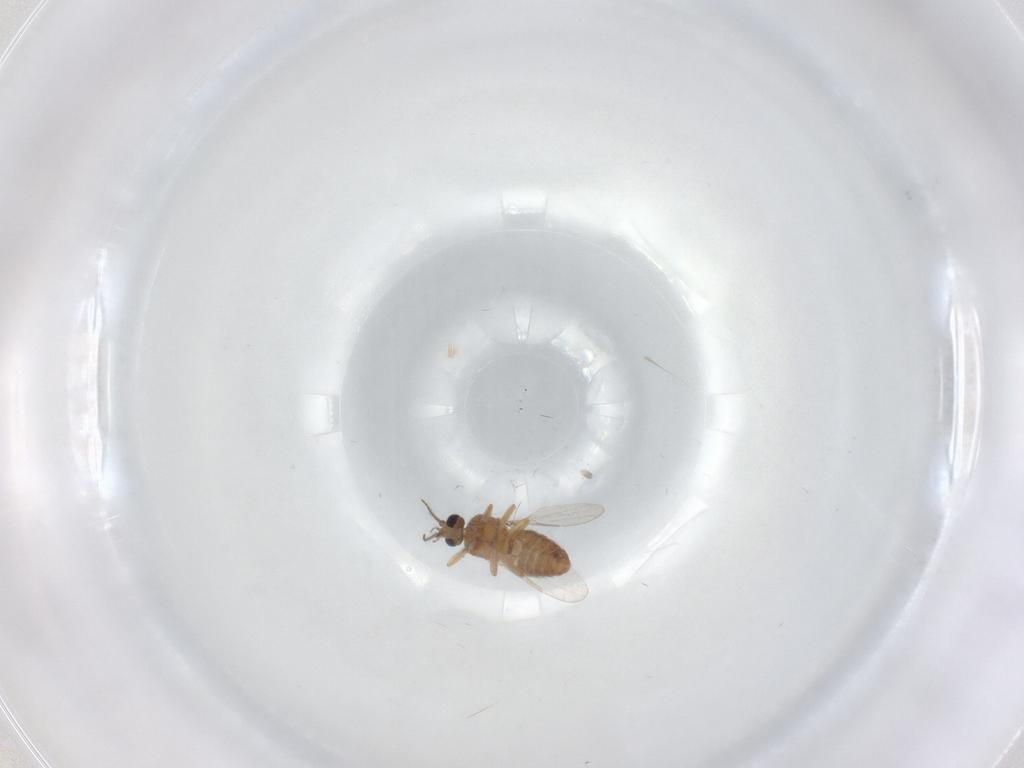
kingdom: Animalia
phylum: Arthropoda
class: Insecta
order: Diptera
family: Ceratopogonidae
